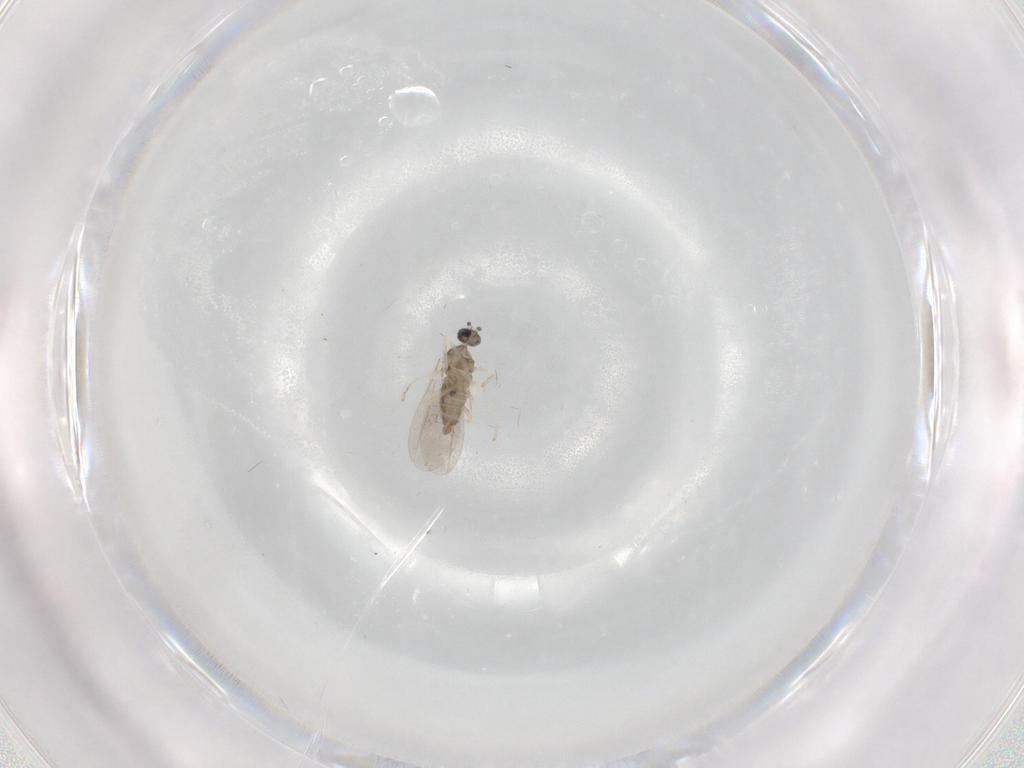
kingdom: Animalia
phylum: Arthropoda
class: Insecta
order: Diptera
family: Cecidomyiidae
